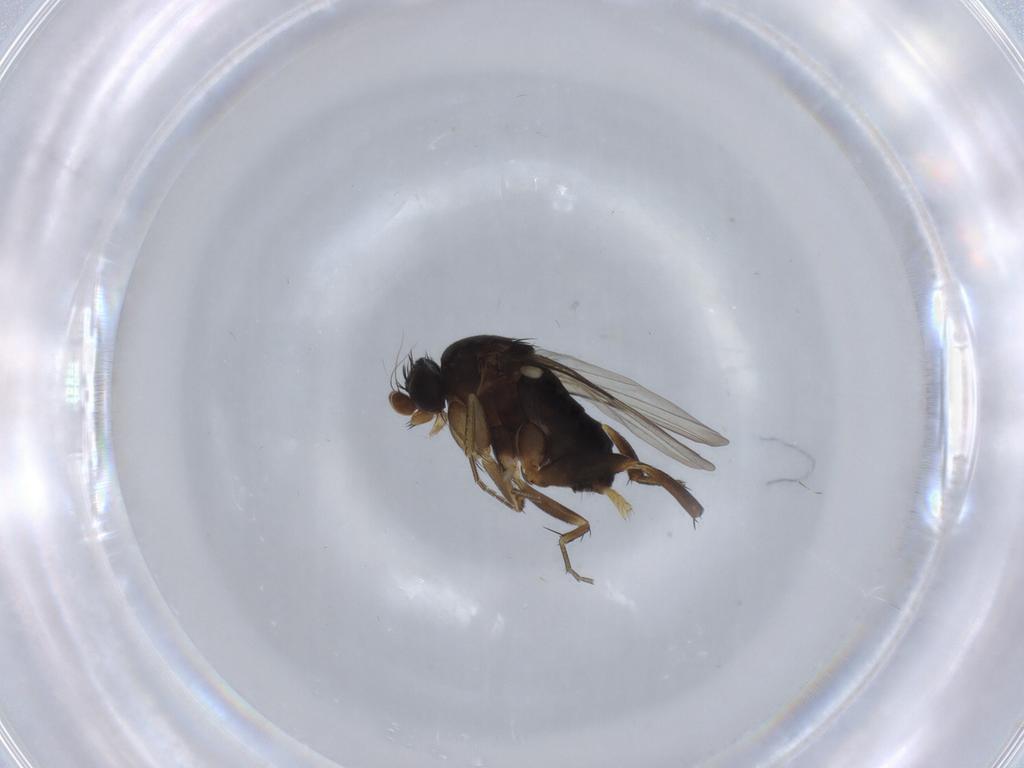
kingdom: Animalia
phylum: Arthropoda
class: Insecta
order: Diptera
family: Phoridae
